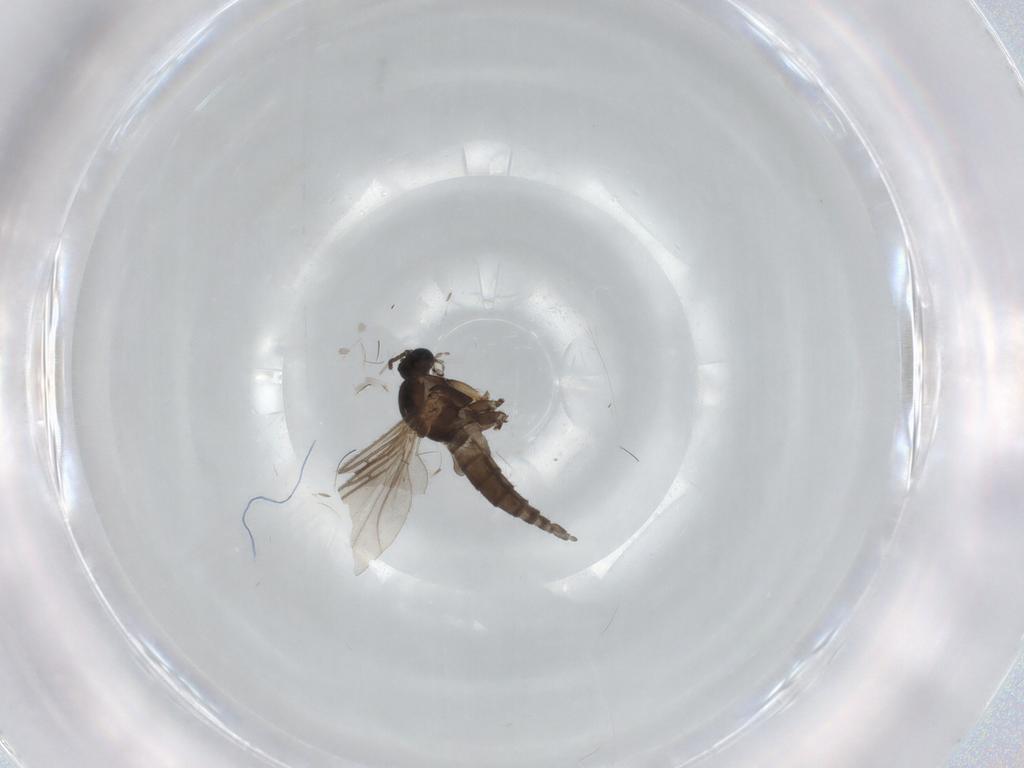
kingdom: Animalia
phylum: Arthropoda
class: Insecta
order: Diptera
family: Sciaridae
